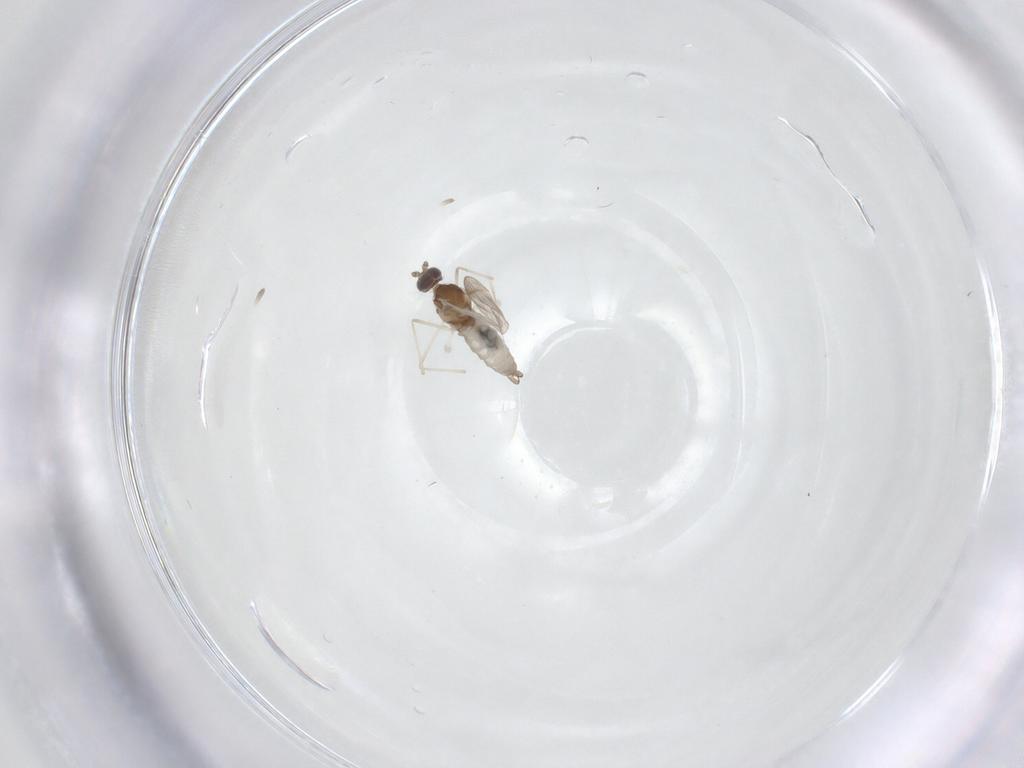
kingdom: Animalia
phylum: Arthropoda
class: Insecta
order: Diptera
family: Cecidomyiidae
